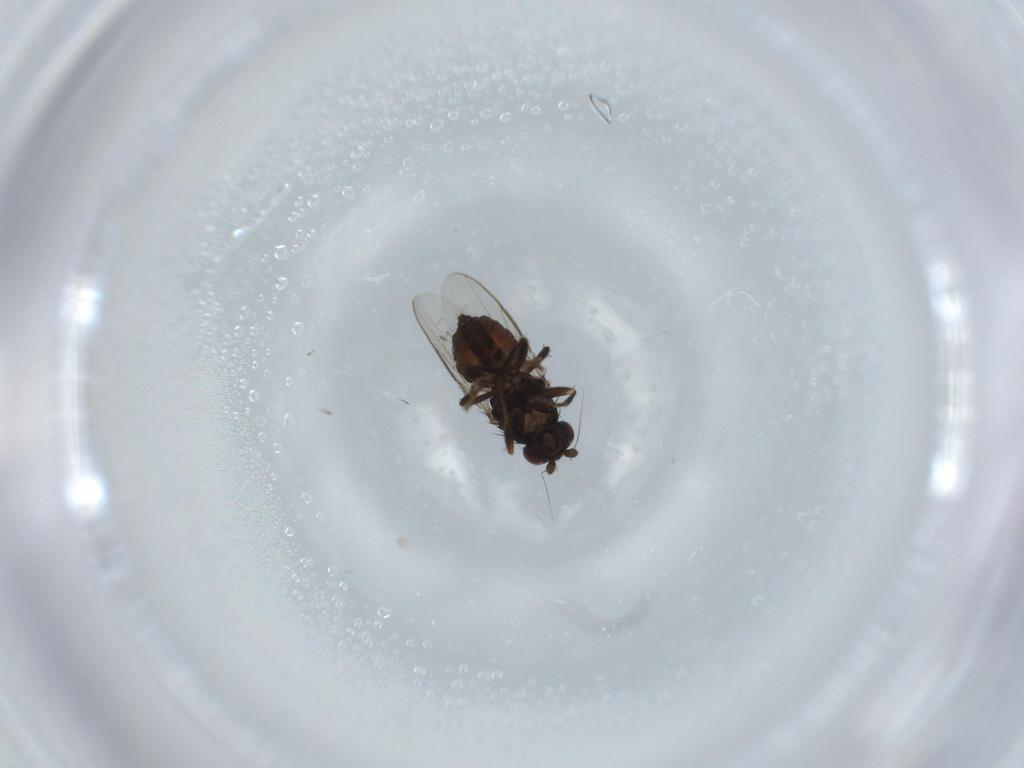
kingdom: Animalia
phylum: Arthropoda
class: Insecta
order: Diptera
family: Sphaeroceridae
